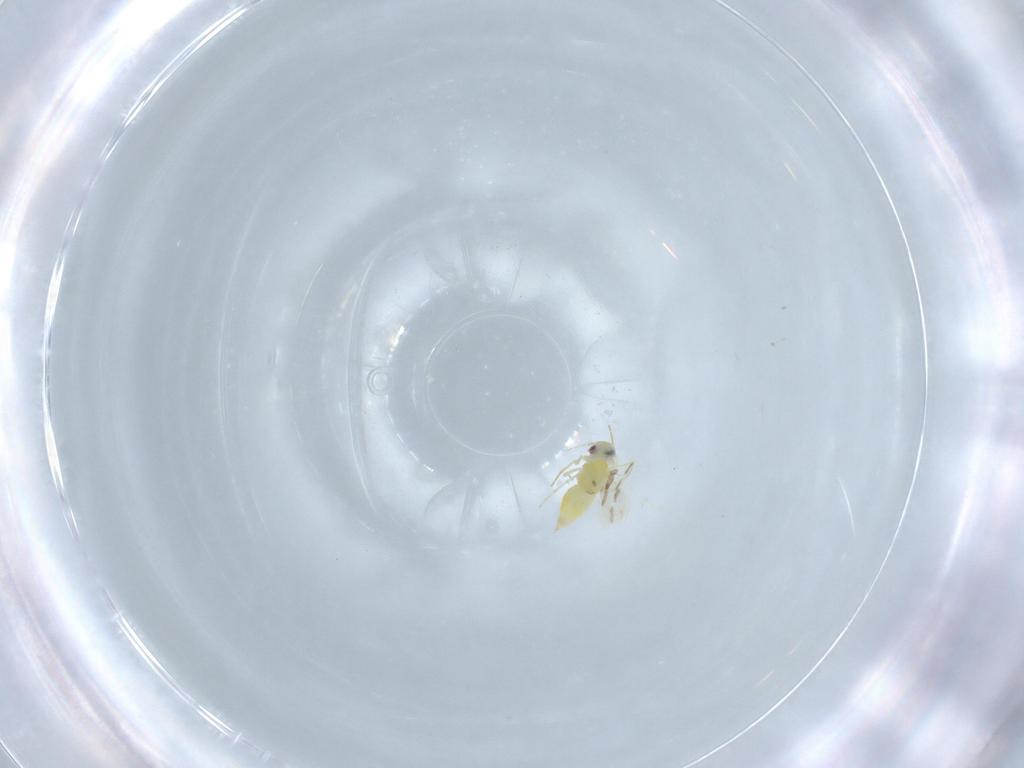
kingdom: Animalia
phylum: Arthropoda
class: Insecta
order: Hemiptera
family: Aleyrodidae
